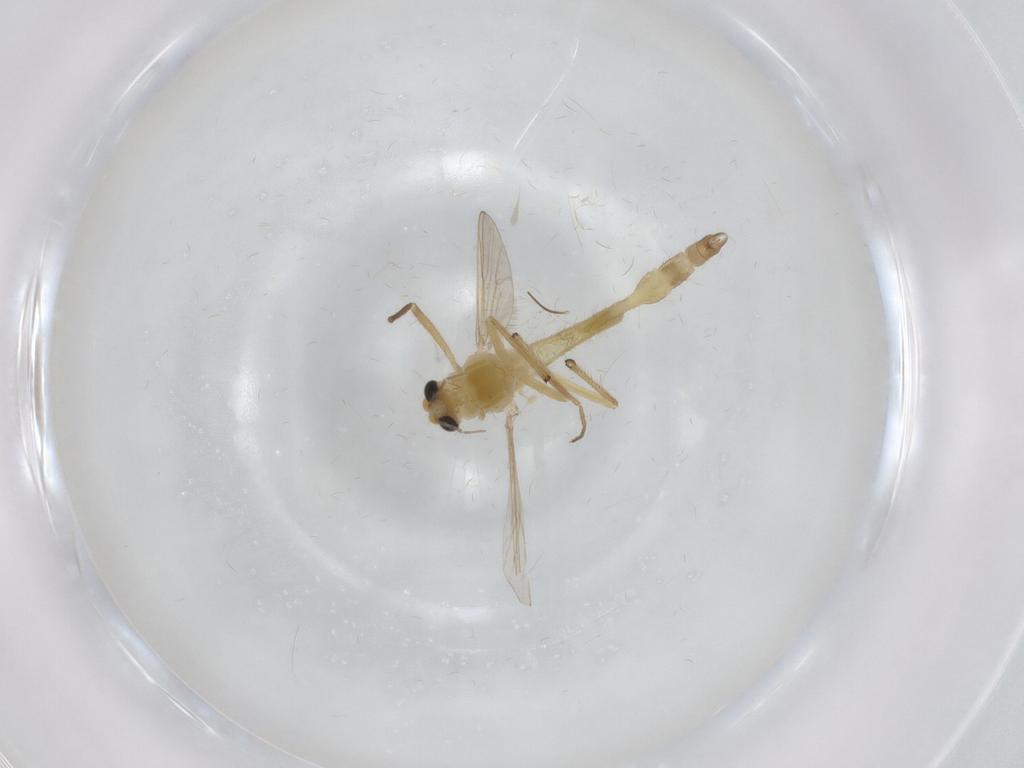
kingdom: Animalia
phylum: Arthropoda
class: Insecta
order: Diptera
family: Chironomidae
